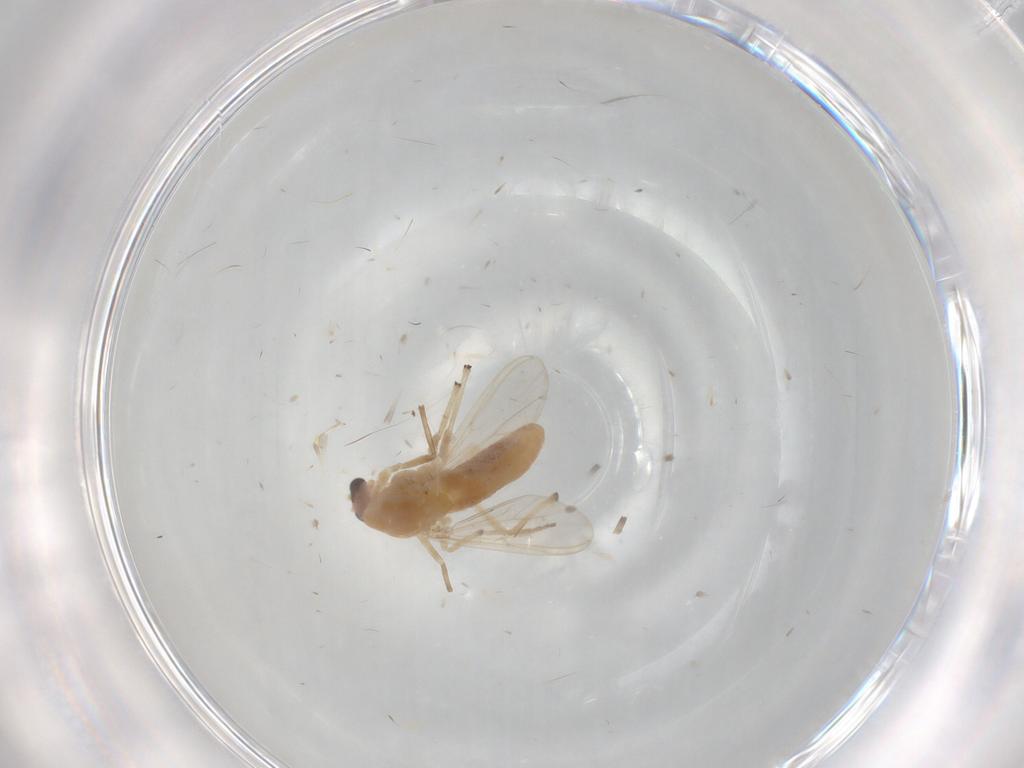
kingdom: Animalia
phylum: Arthropoda
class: Insecta
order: Diptera
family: Chironomidae
